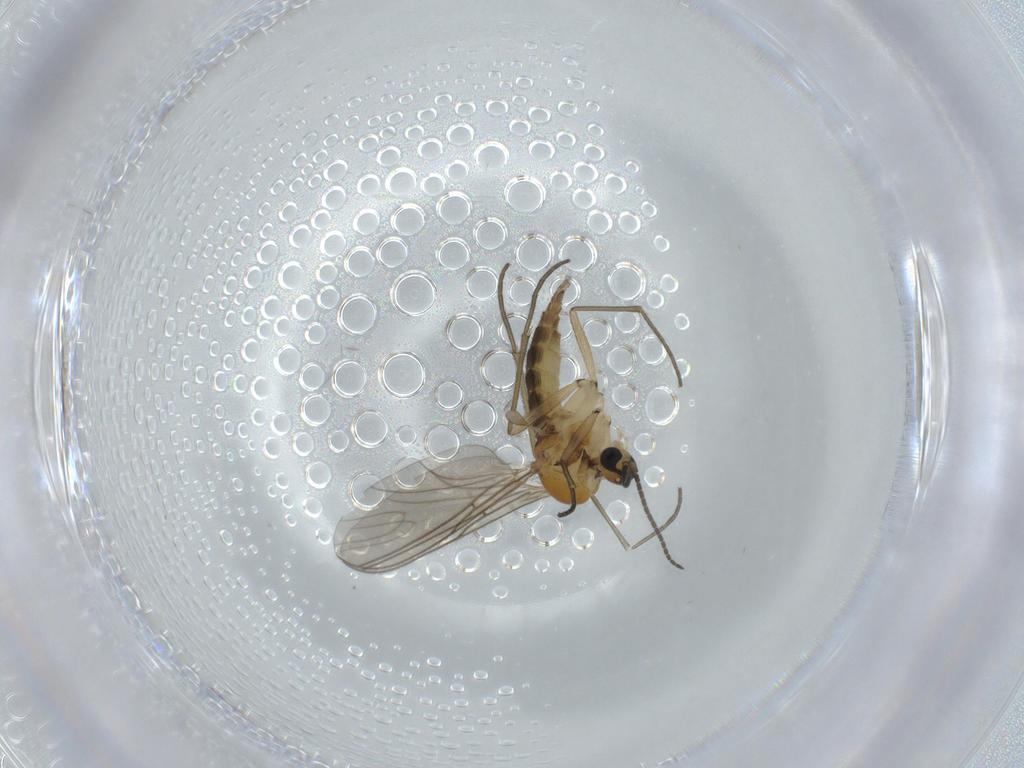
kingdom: Animalia
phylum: Arthropoda
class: Insecta
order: Diptera
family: Sciaridae
